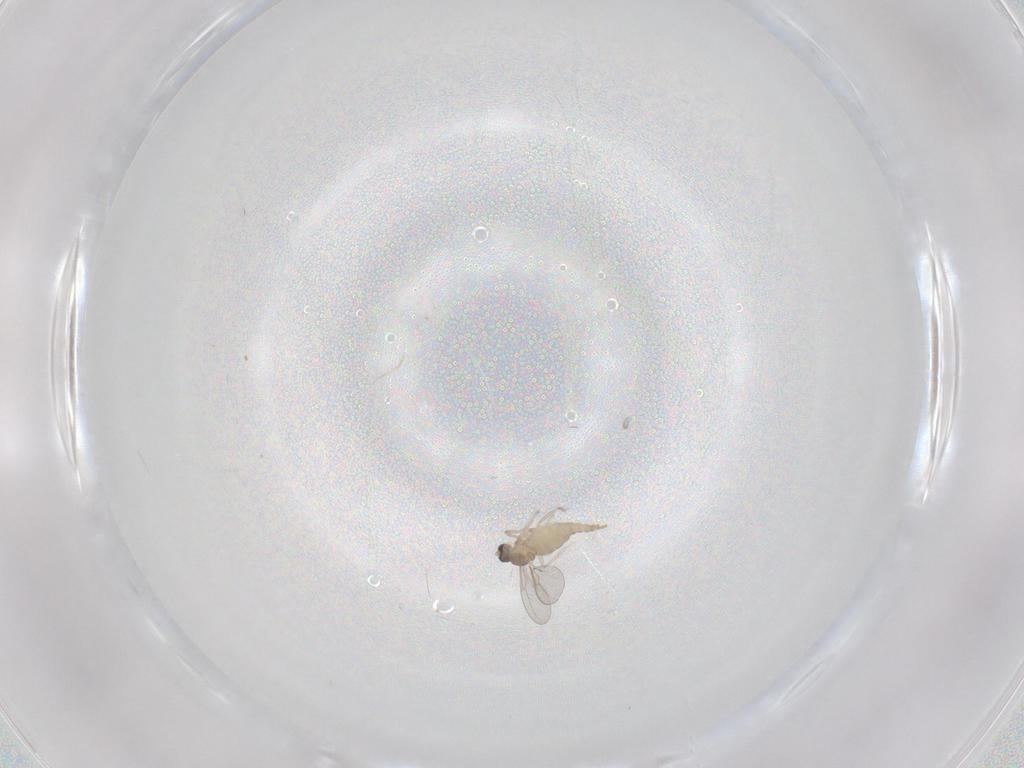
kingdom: Animalia
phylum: Arthropoda
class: Insecta
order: Diptera
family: Cecidomyiidae
